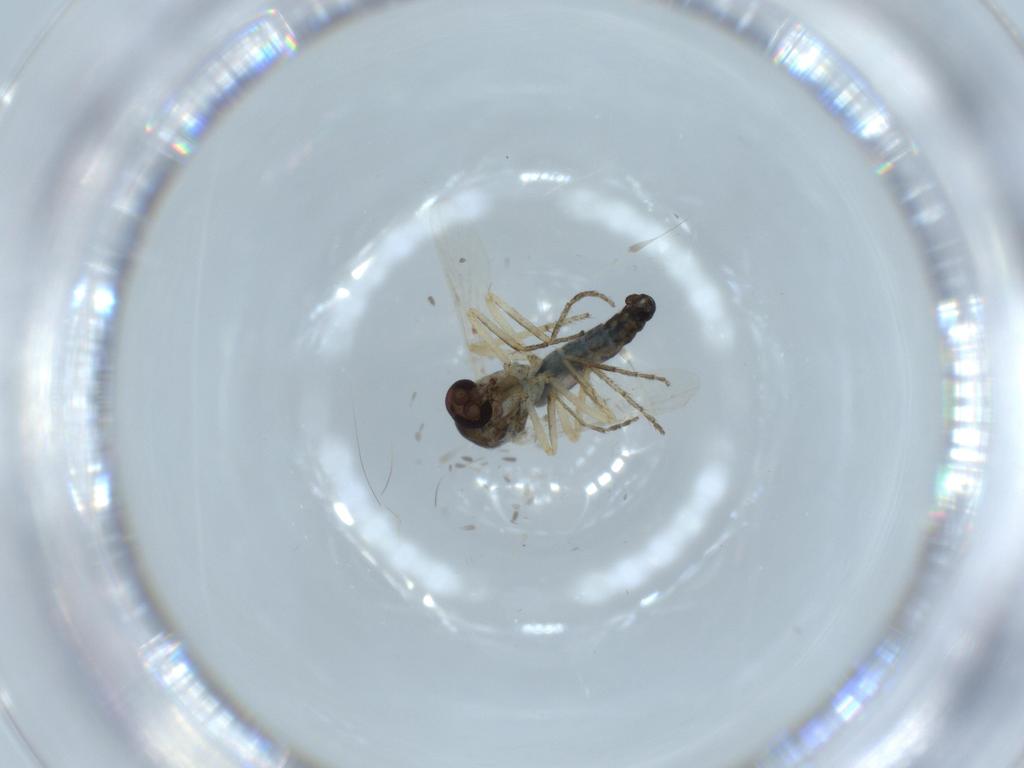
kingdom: Animalia
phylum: Arthropoda
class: Insecta
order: Diptera
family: Ceratopogonidae
